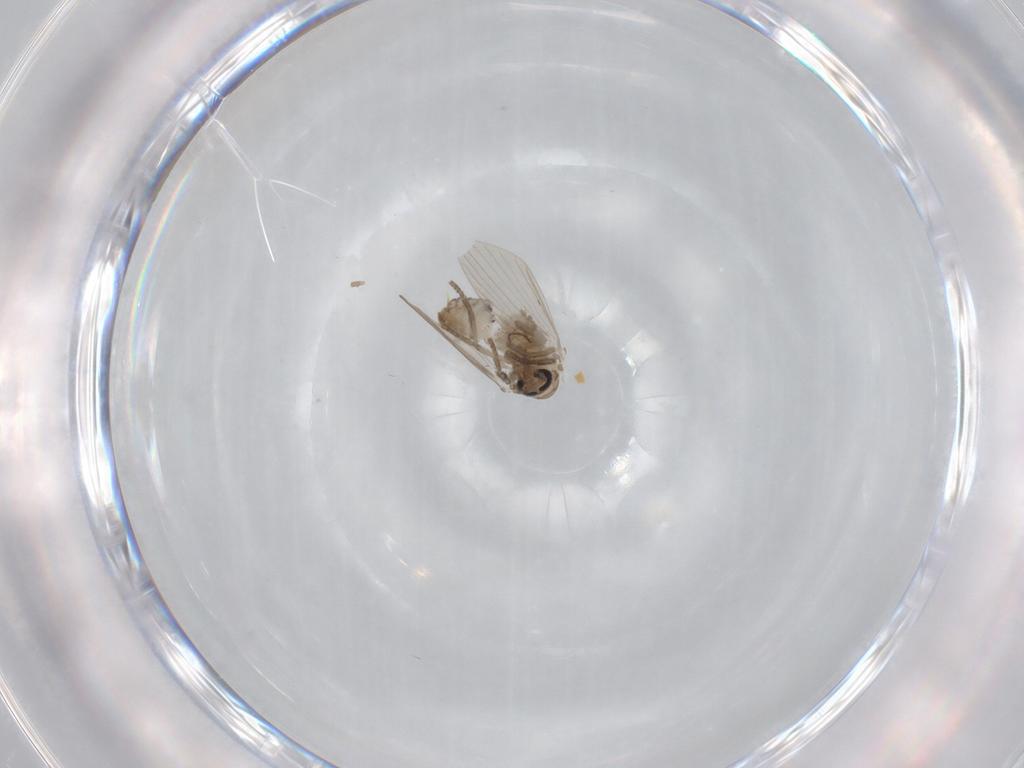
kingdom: Animalia
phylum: Arthropoda
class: Insecta
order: Diptera
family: Psychodidae
